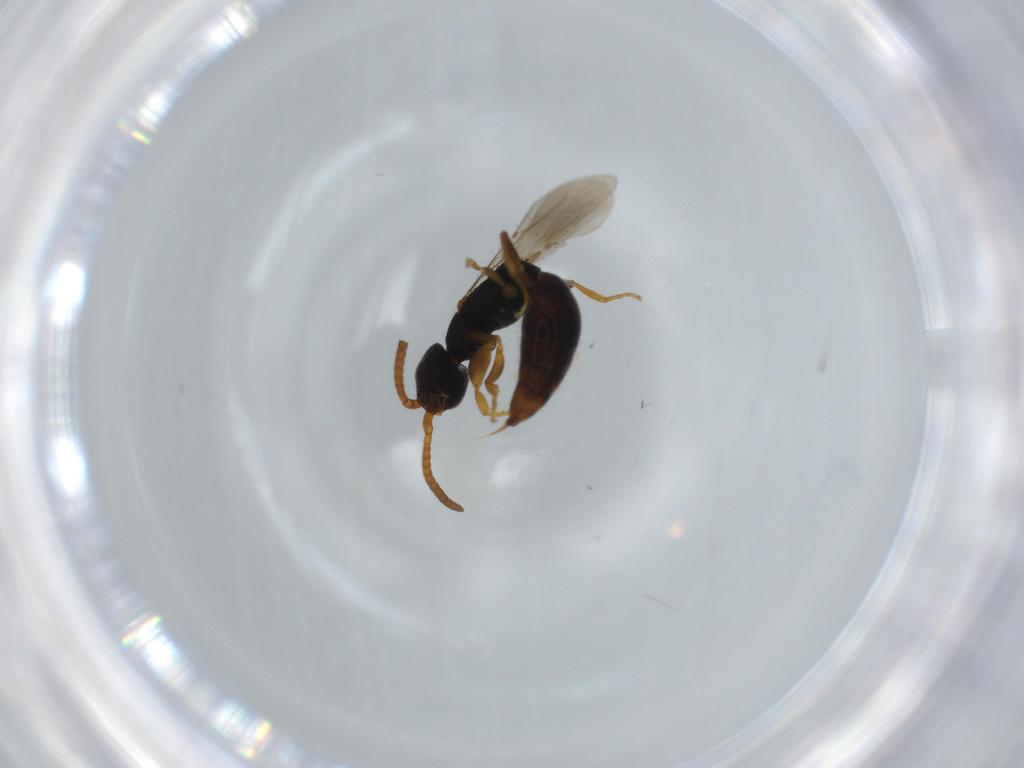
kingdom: Animalia
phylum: Arthropoda
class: Insecta
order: Hymenoptera
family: Bethylidae
